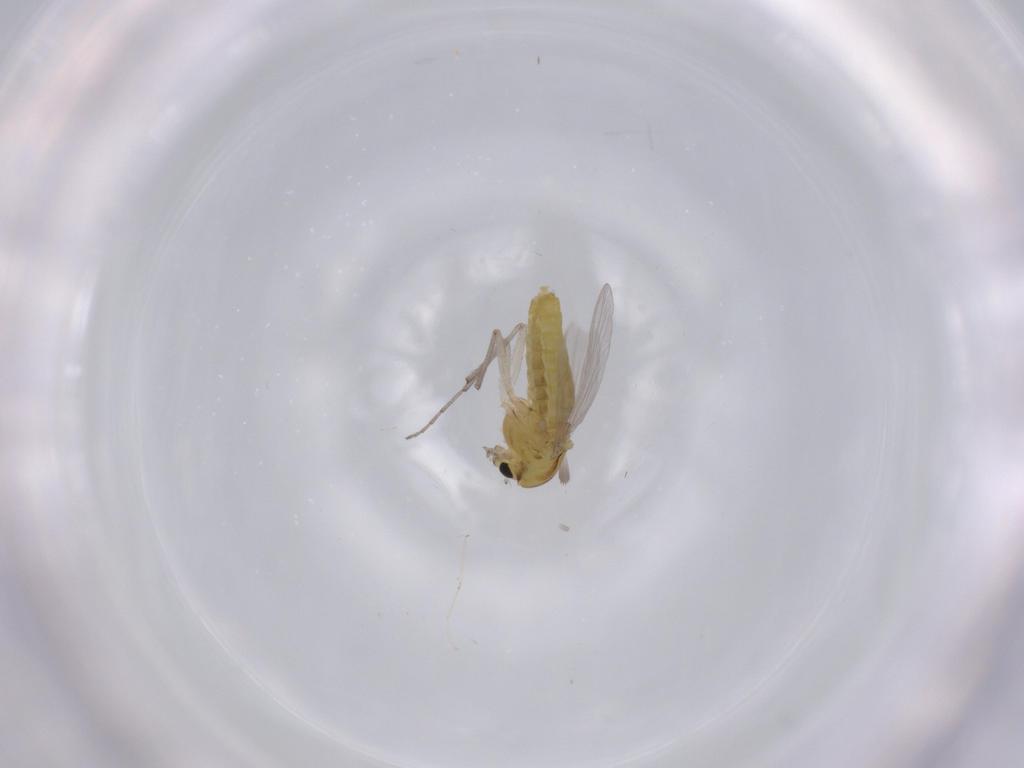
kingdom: Animalia
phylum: Arthropoda
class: Insecta
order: Diptera
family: Chironomidae
